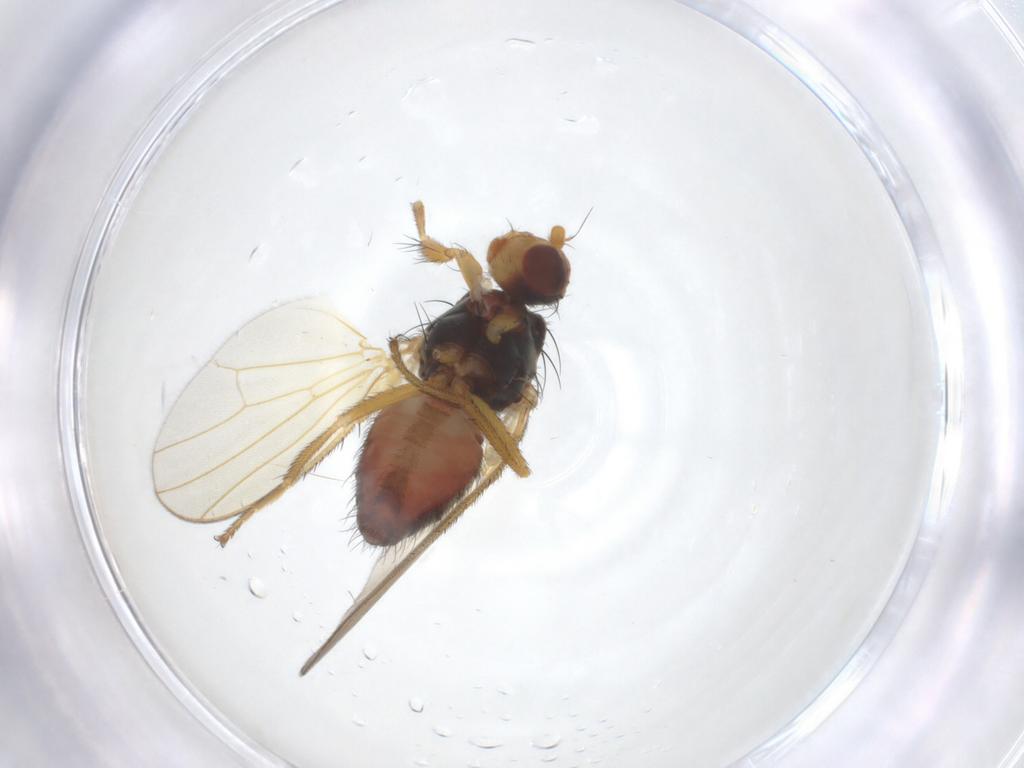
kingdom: Animalia
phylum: Arthropoda
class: Insecta
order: Diptera
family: Heleomyzidae
